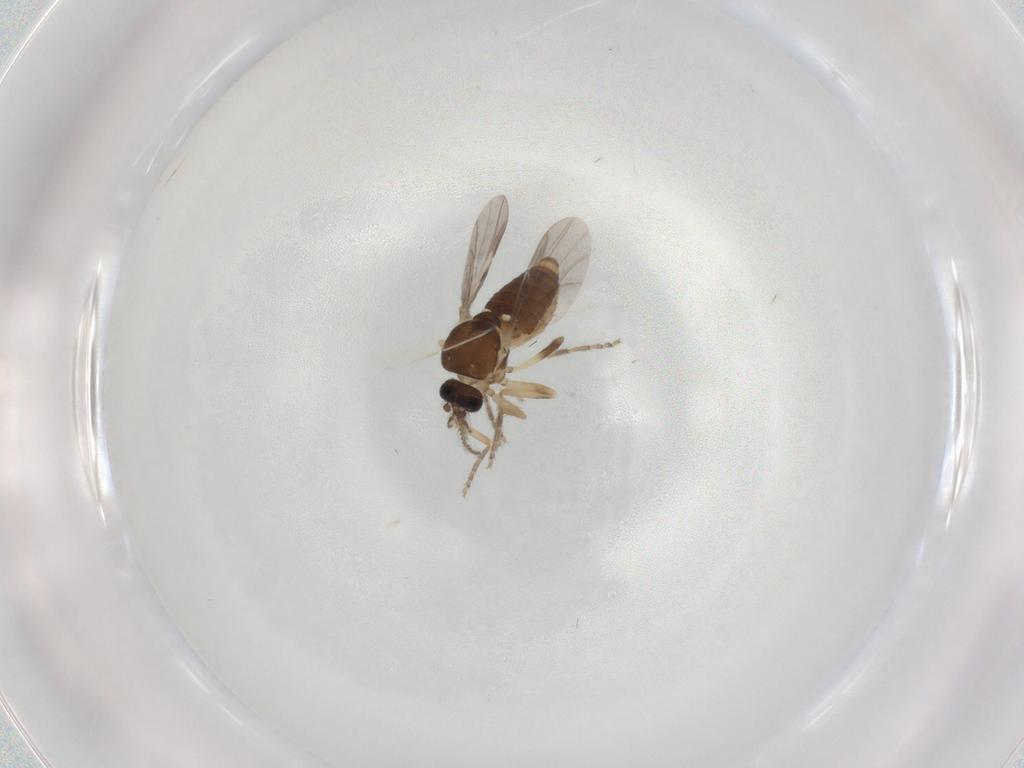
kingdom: Animalia
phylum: Arthropoda
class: Insecta
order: Diptera
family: Ceratopogonidae
